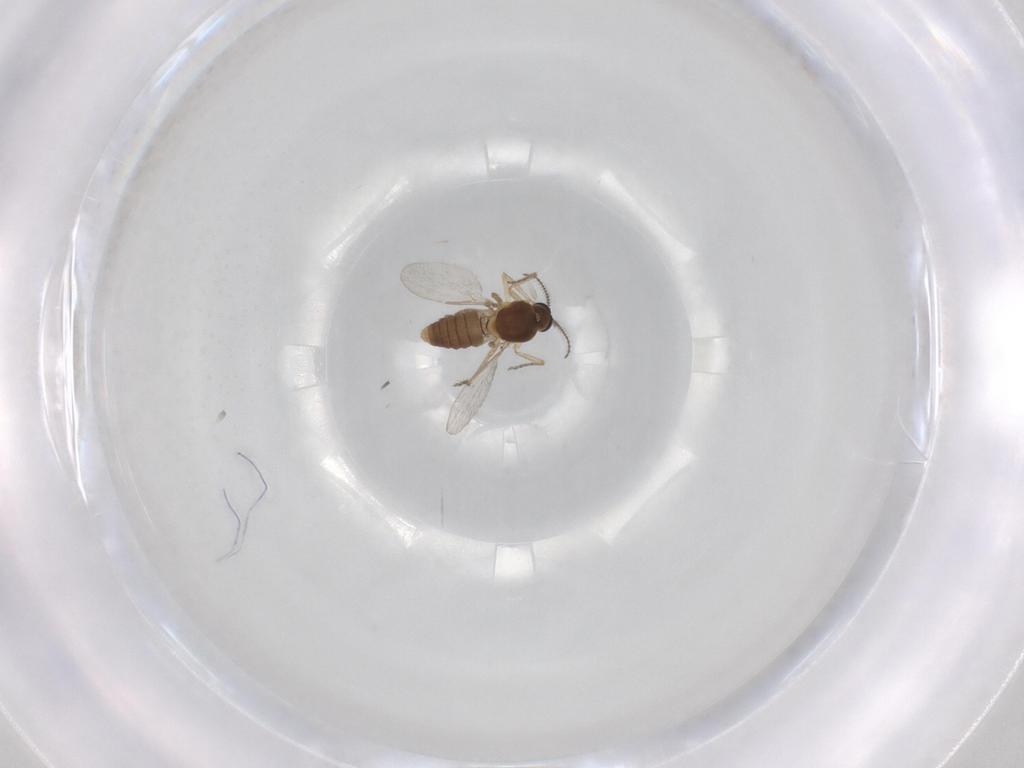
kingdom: Animalia
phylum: Arthropoda
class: Insecta
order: Diptera
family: Ceratopogonidae
